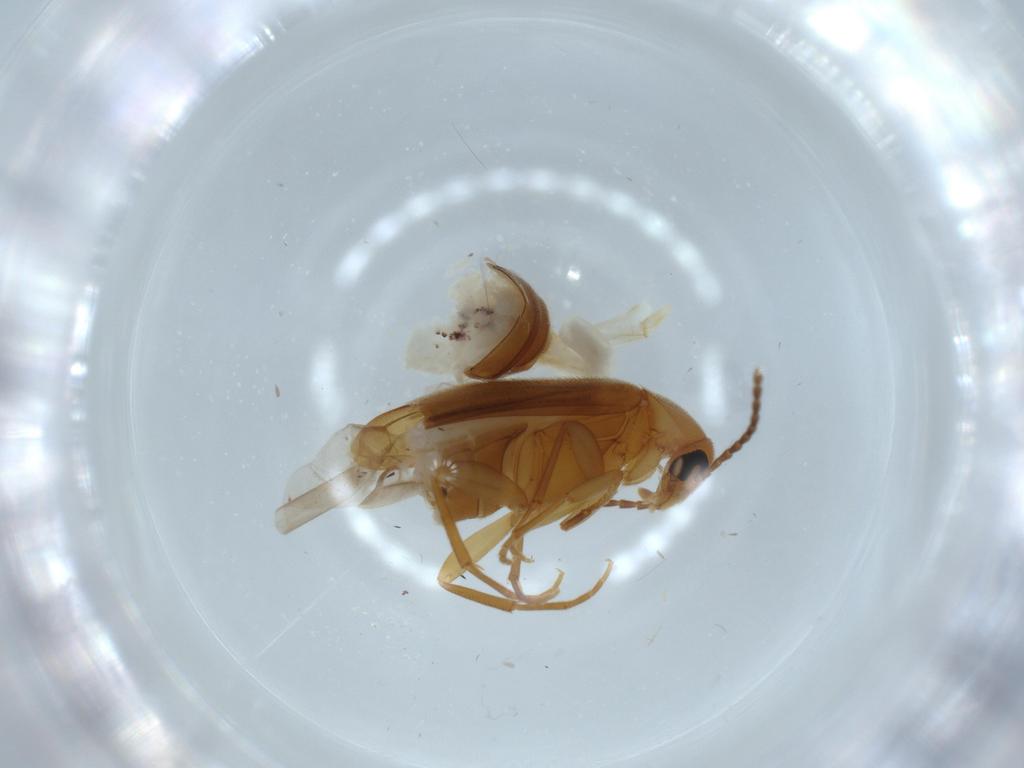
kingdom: Animalia
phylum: Arthropoda
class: Insecta
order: Coleoptera
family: Scraptiidae
